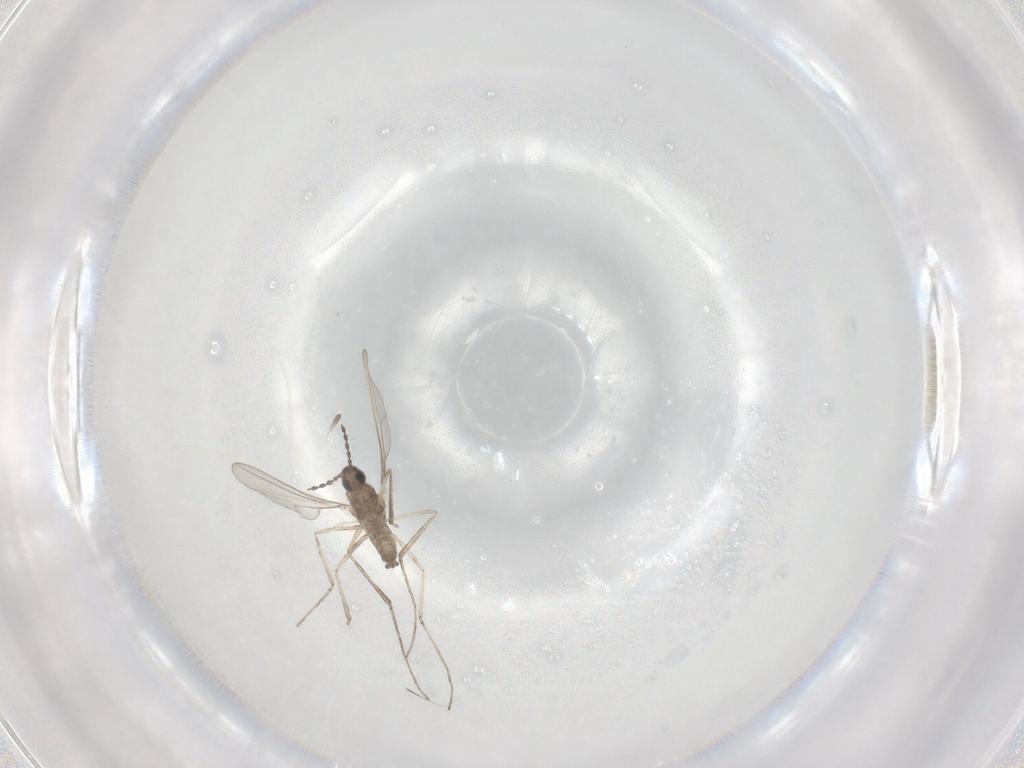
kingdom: Animalia
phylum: Arthropoda
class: Insecta
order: Diptera
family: Cecidomyiidae
